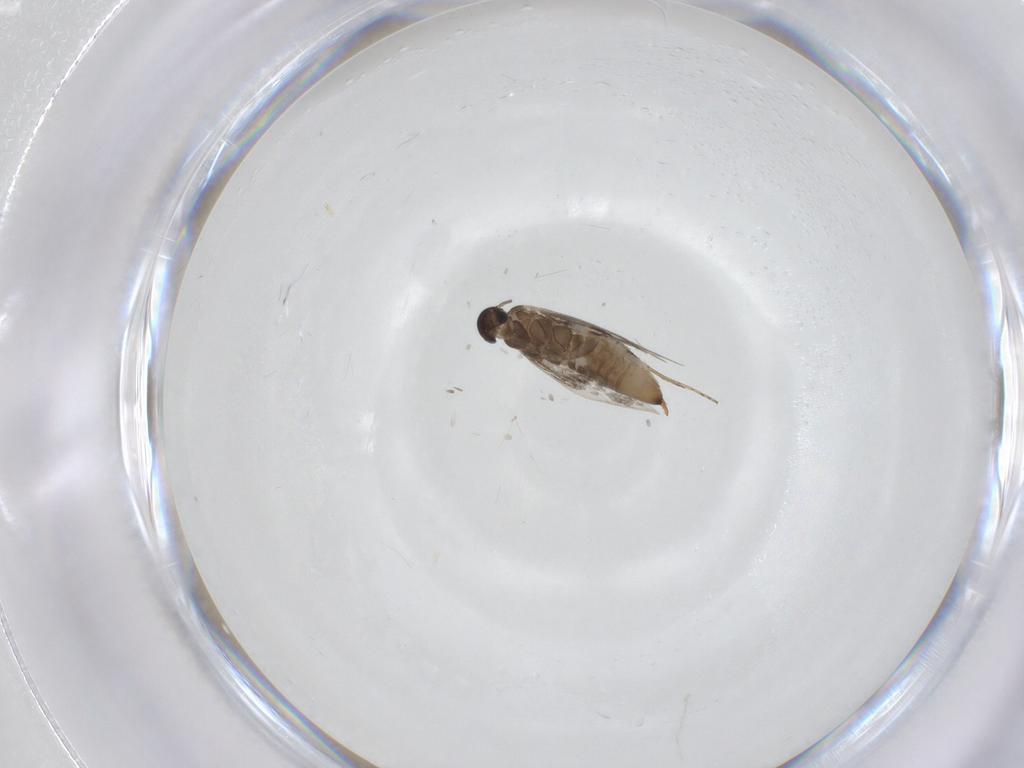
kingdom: Animalia
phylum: Arthropoda
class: Insecta
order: Lepidoptera
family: Heliozelidae
